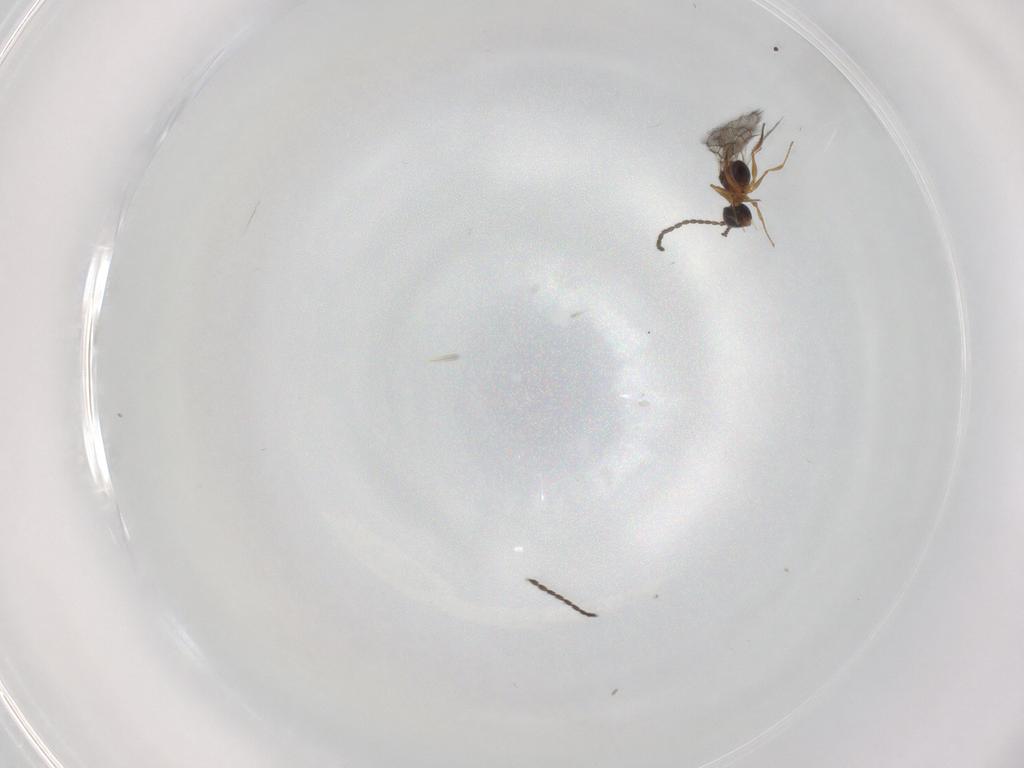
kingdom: Animalia
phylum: Arthropoda
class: Insecta
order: Hymenoptera
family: Figitidae
